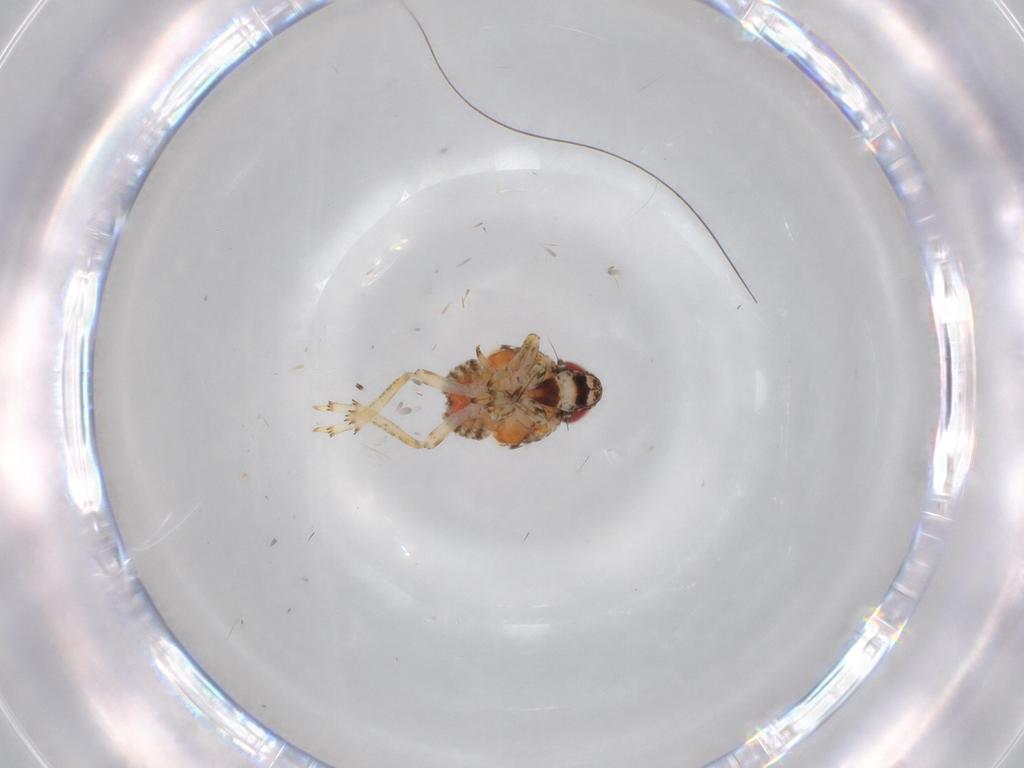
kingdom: Animalia
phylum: Arthropoda
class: Insecta
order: Hemiptera
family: Issidae
